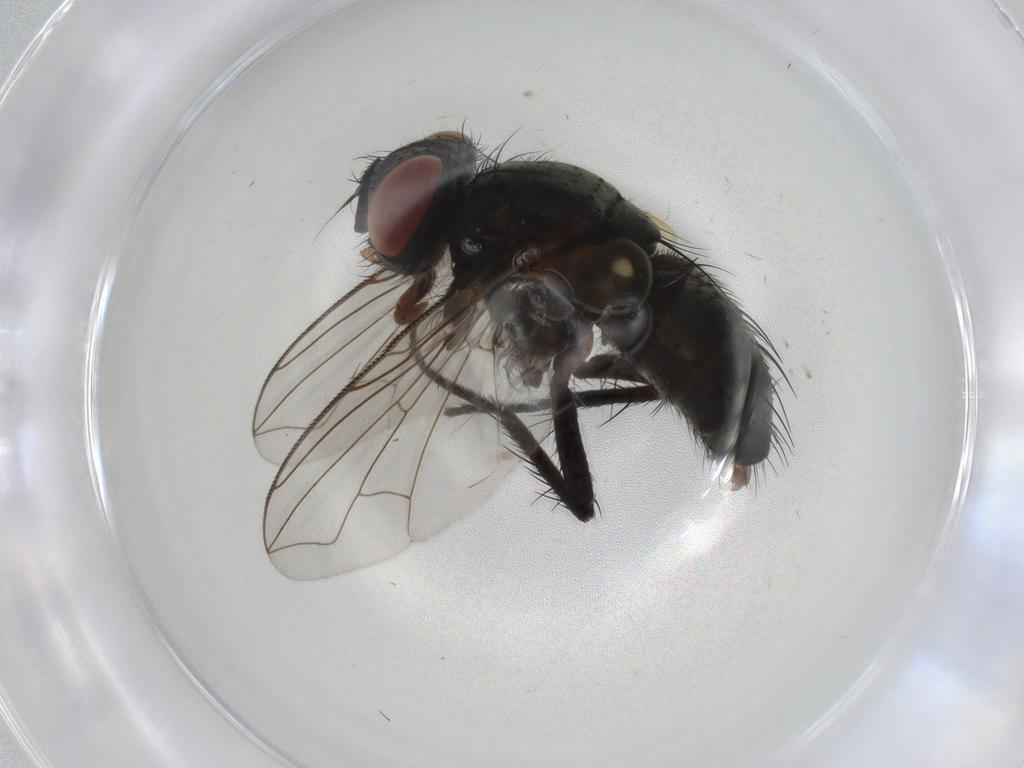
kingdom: Animalia
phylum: Arthropoda
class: Insecta
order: Diptera
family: Tachinidae
